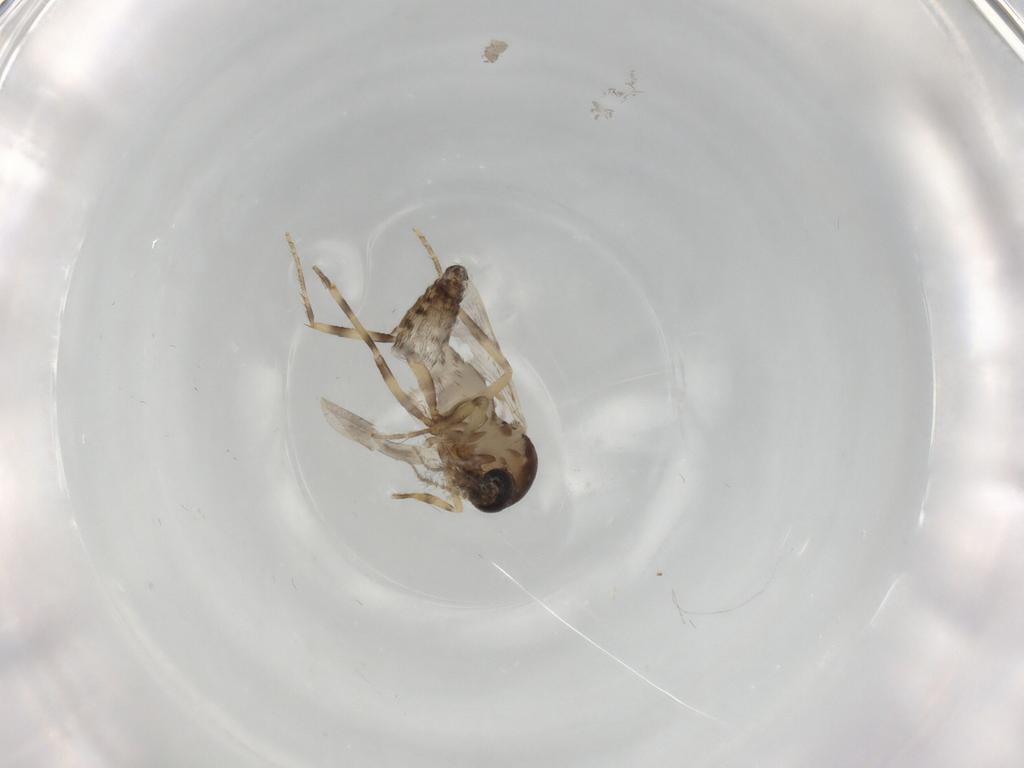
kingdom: Animalia
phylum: Arthropoda
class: Insecta
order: Diptera
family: Ceratopogonidae
